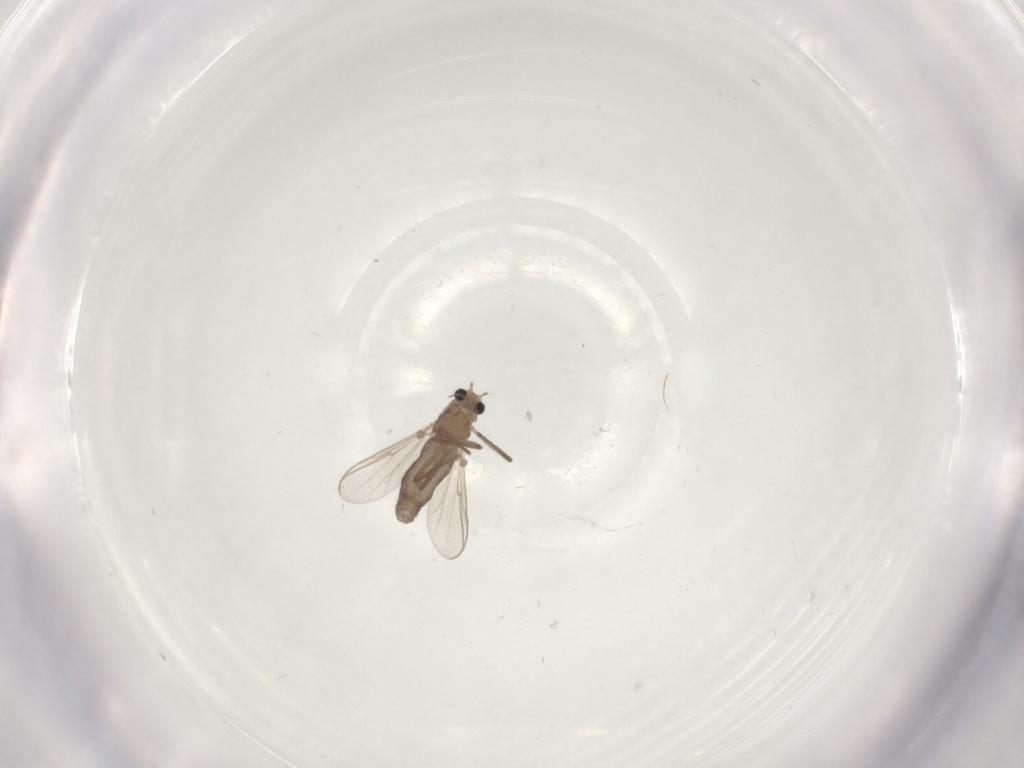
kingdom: Animalia
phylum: Arthropoda
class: Insecta
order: Diptera
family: Chironomidae
